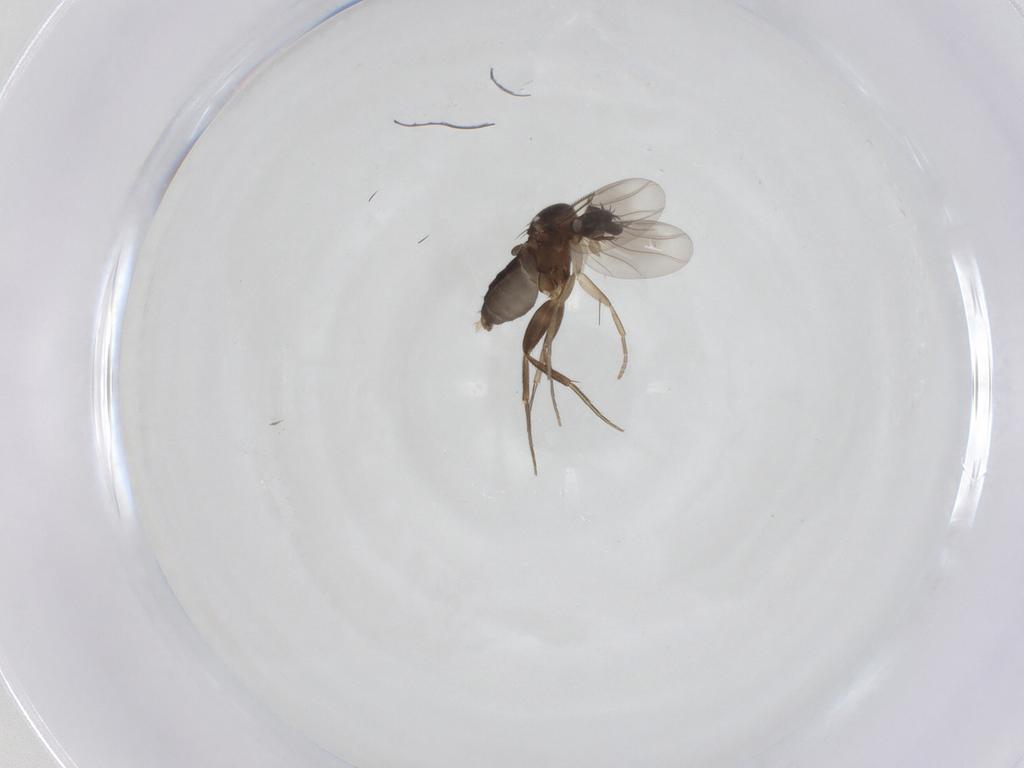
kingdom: Animalia
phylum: Arthropoda
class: Insecta
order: Diptera
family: Phoridae
